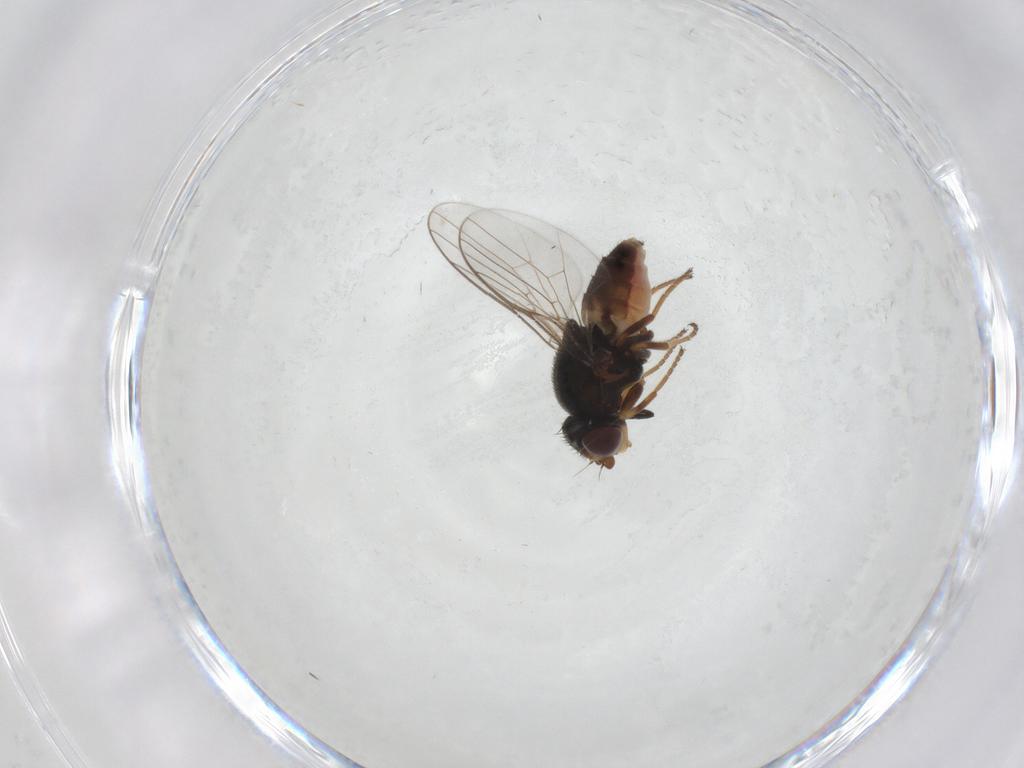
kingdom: Animalia
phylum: Arthropoda
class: Insecta
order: Diptera
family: Chloropidae
